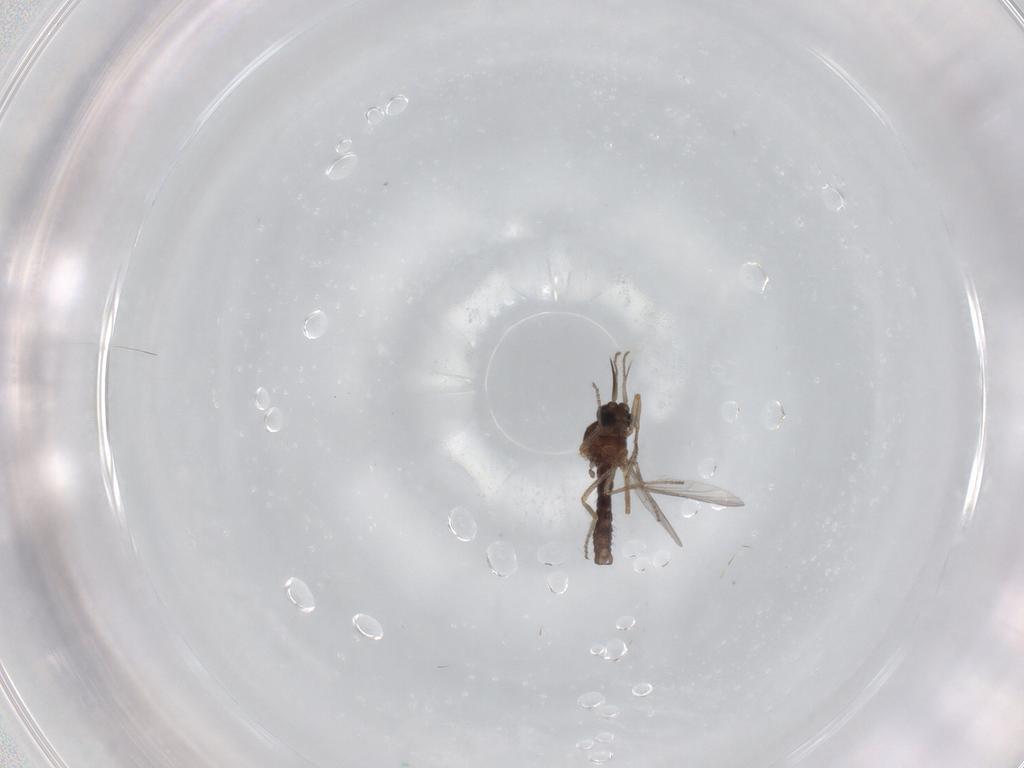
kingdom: Animalia
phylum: Arthropoda
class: Insecta
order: Diptera
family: Ceratopogonidae
